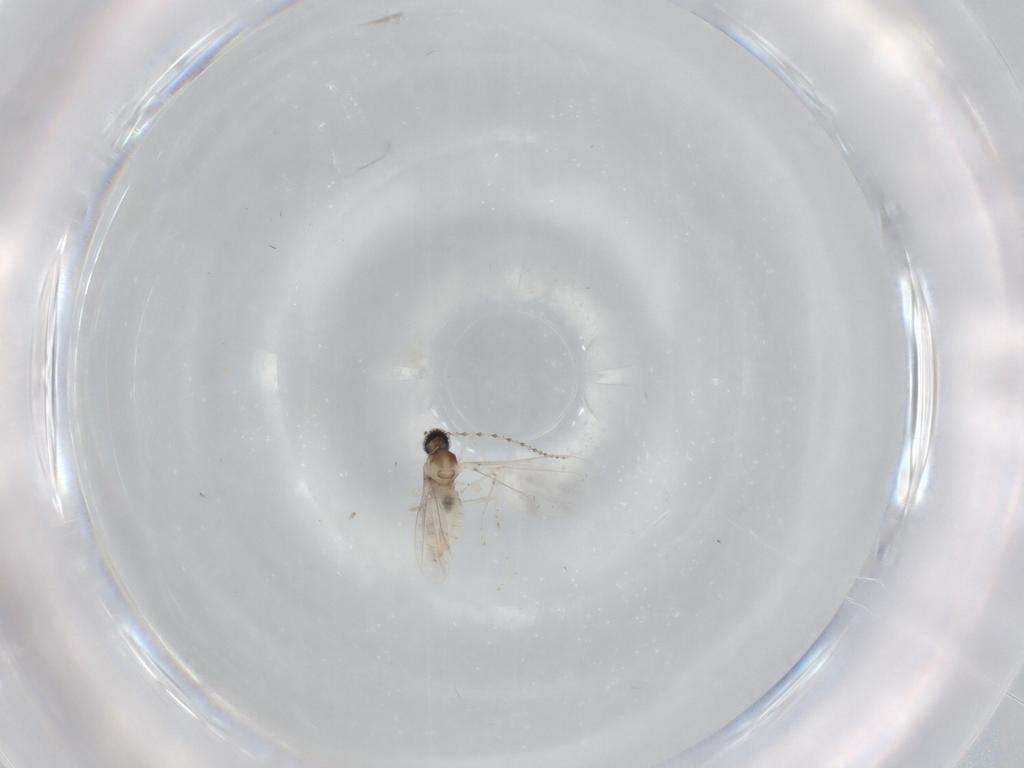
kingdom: Animalia
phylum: Arthropoda
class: Insecta
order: Diptera
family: Cecidomyiidae
